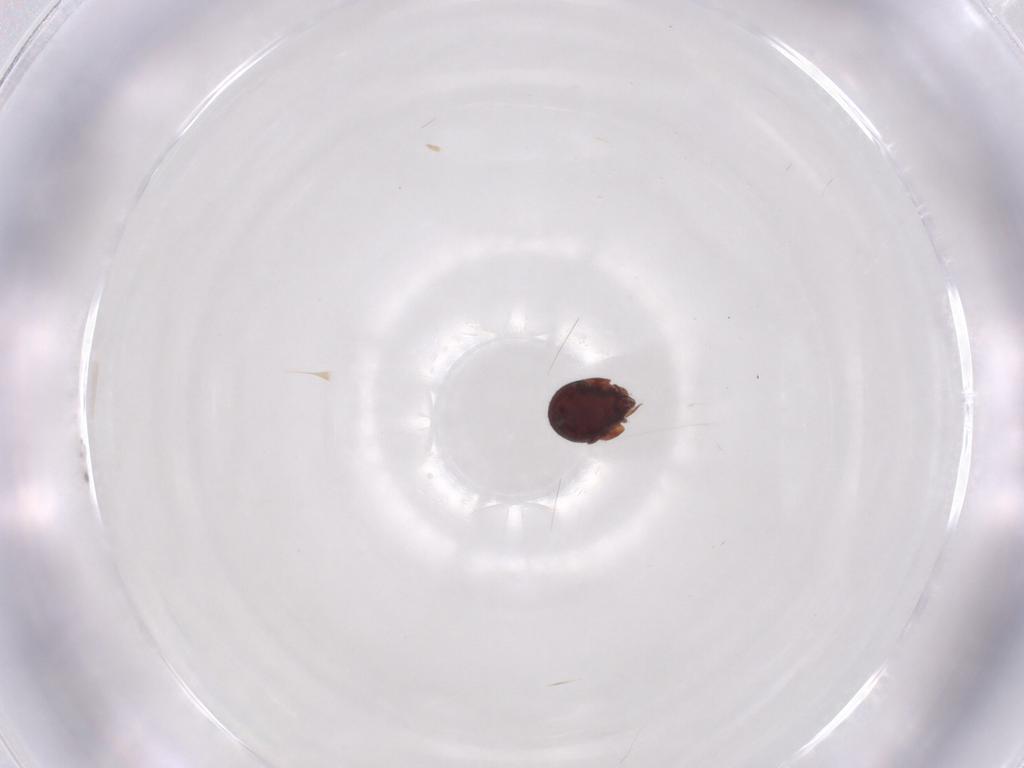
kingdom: Animalia
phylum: Arthropoda
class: Arachnida
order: Sarcoptiformes
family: Humerobatidae
